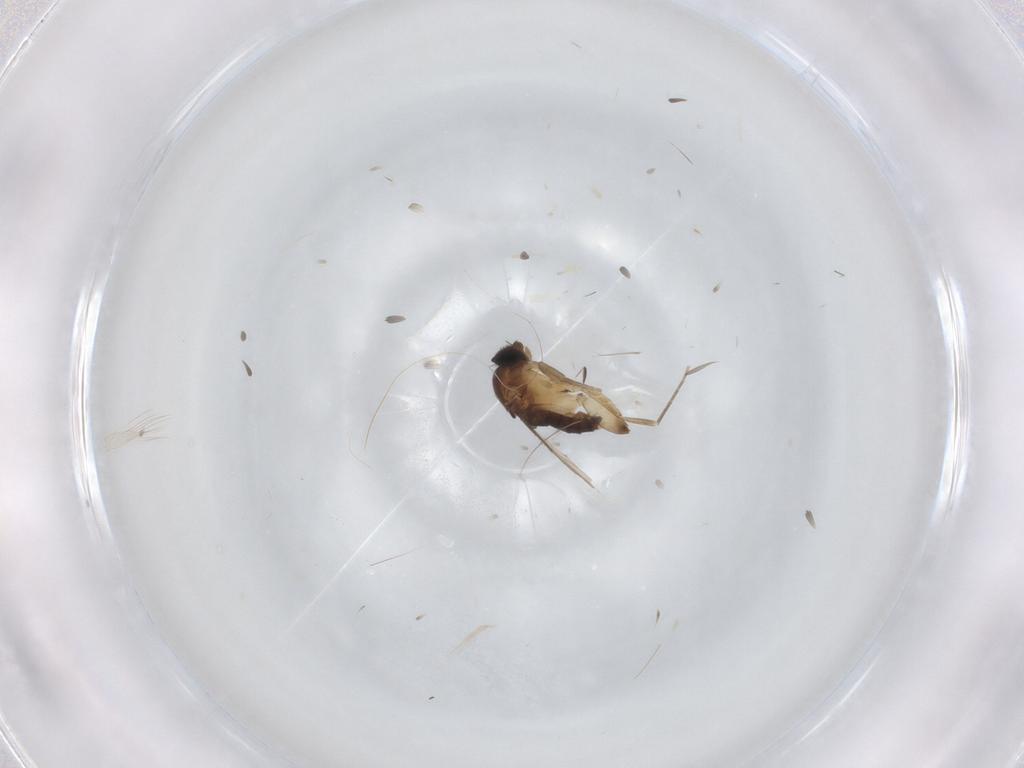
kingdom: Animalia
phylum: Arthropoda
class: Insecta
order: Diptera
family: Phoridae
